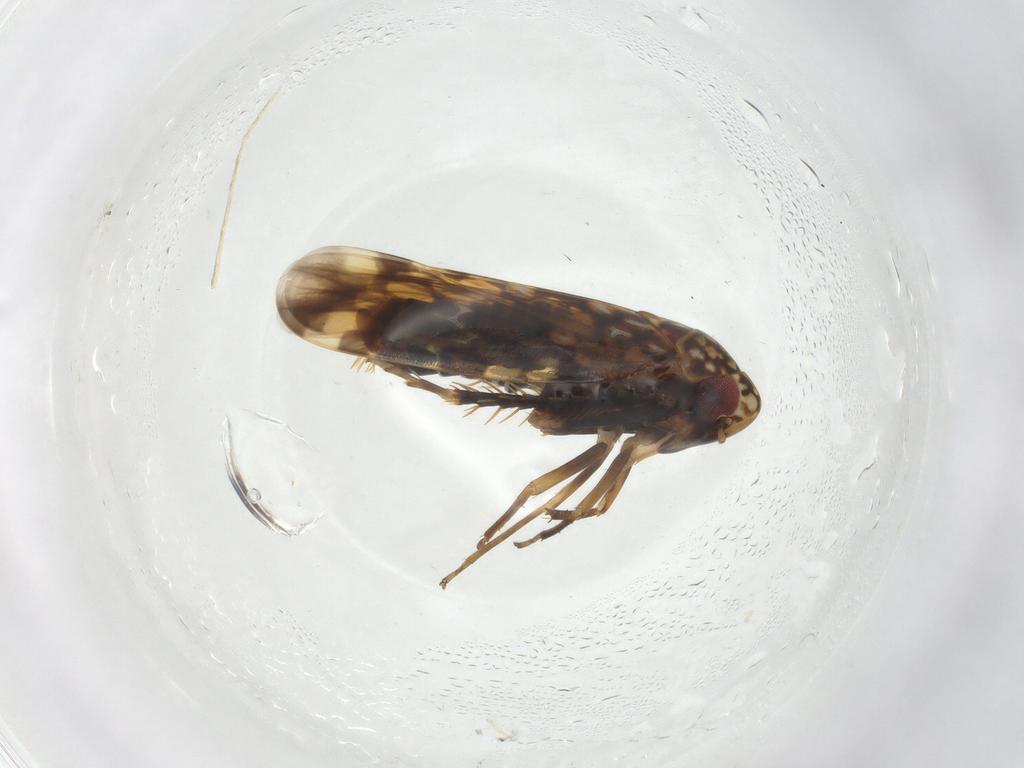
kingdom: Animalia
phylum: Arthropoda
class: Insecta
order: Hemiptera
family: Cicadellidae
